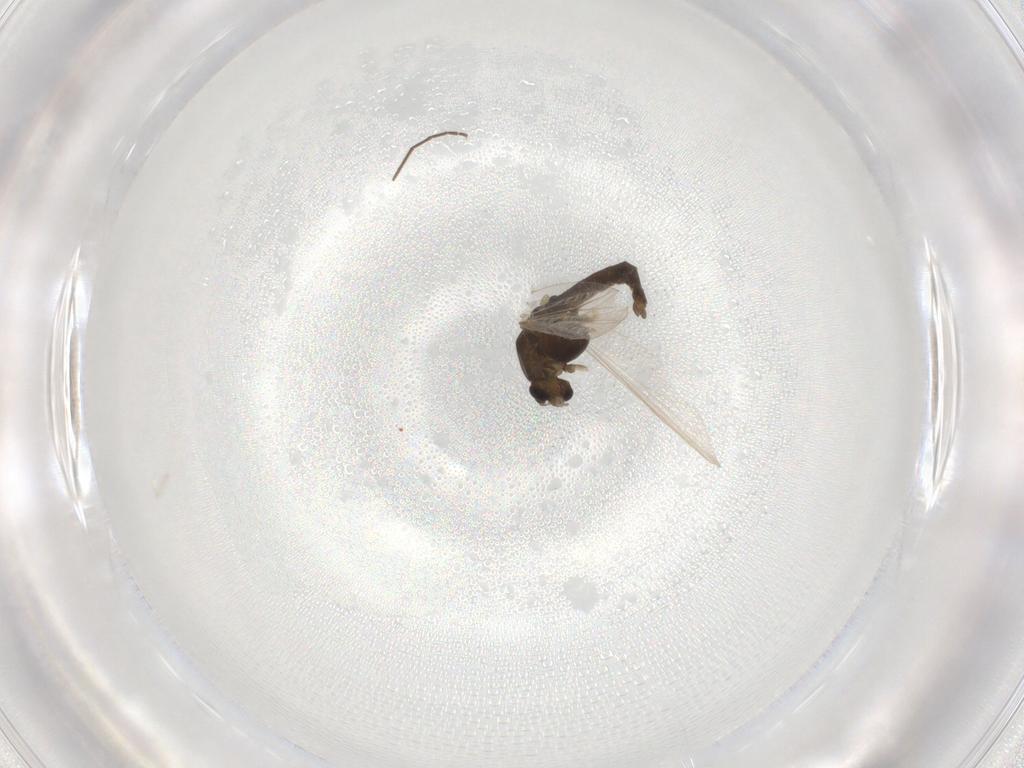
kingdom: Animalia
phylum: Arthropoda
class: Insecta
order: Diptera
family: Chironomidae
